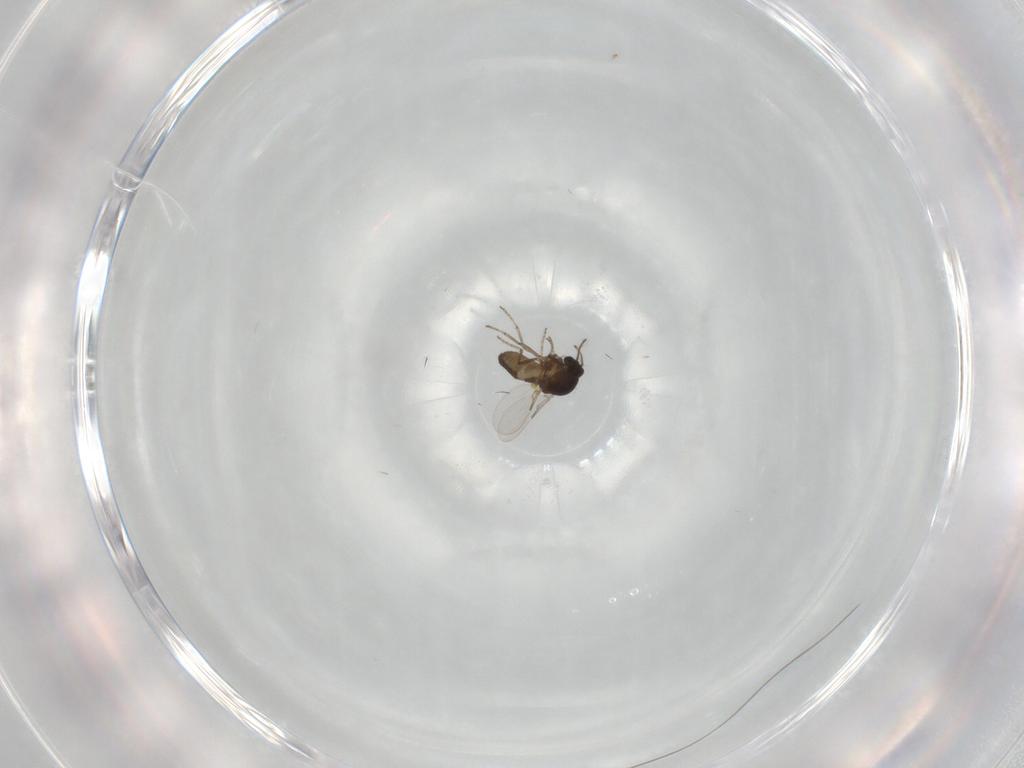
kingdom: Animalia
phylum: Arthropoda
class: Insecta
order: Diptera
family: Ceratopogonidae
